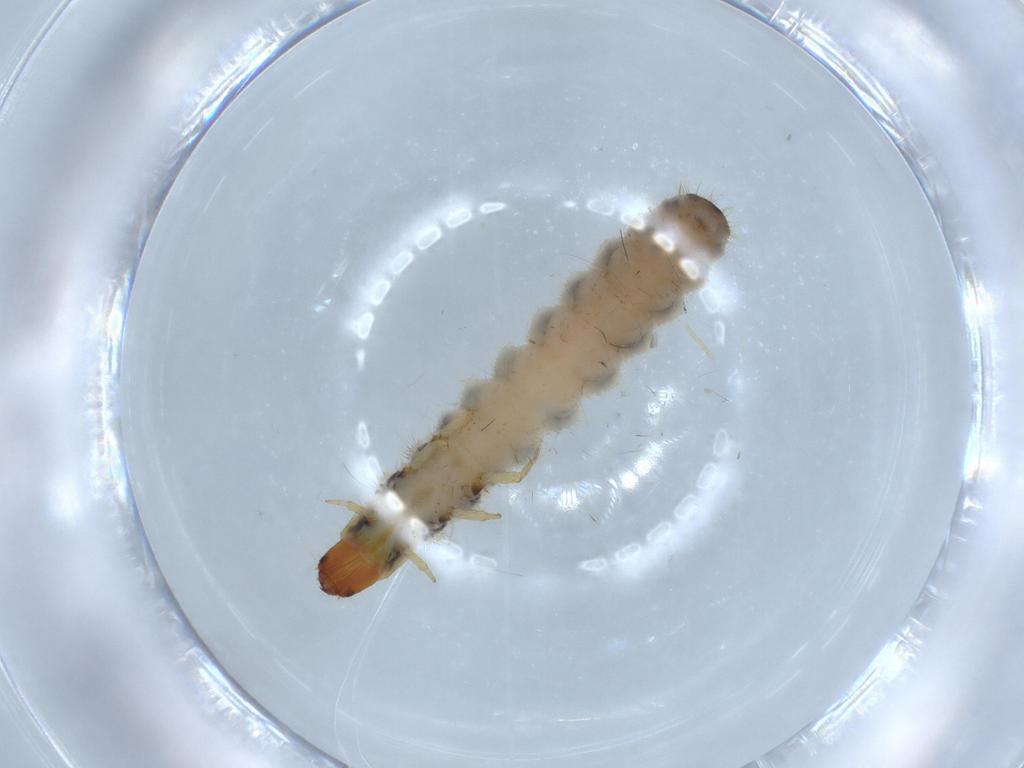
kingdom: Animalia
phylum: Arthropoda
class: Insecta
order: Coleoptera
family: Cleridae
